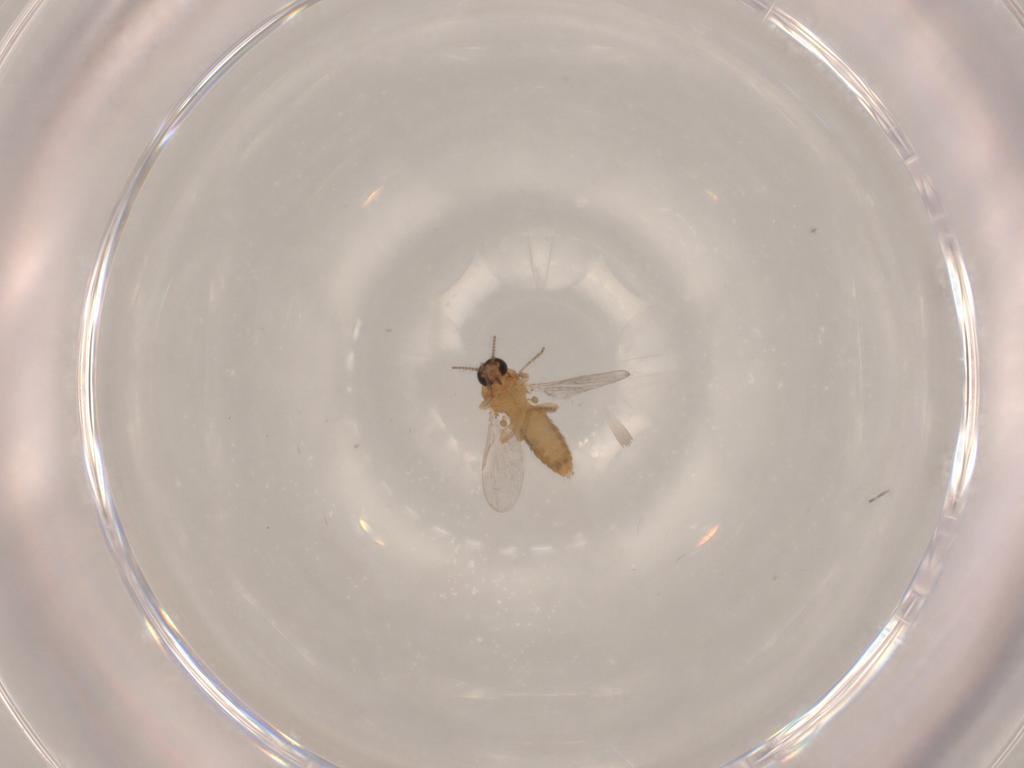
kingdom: Animalia
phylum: Arthropoda
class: Insecta
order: Diptera
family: Ceratopogonidae
